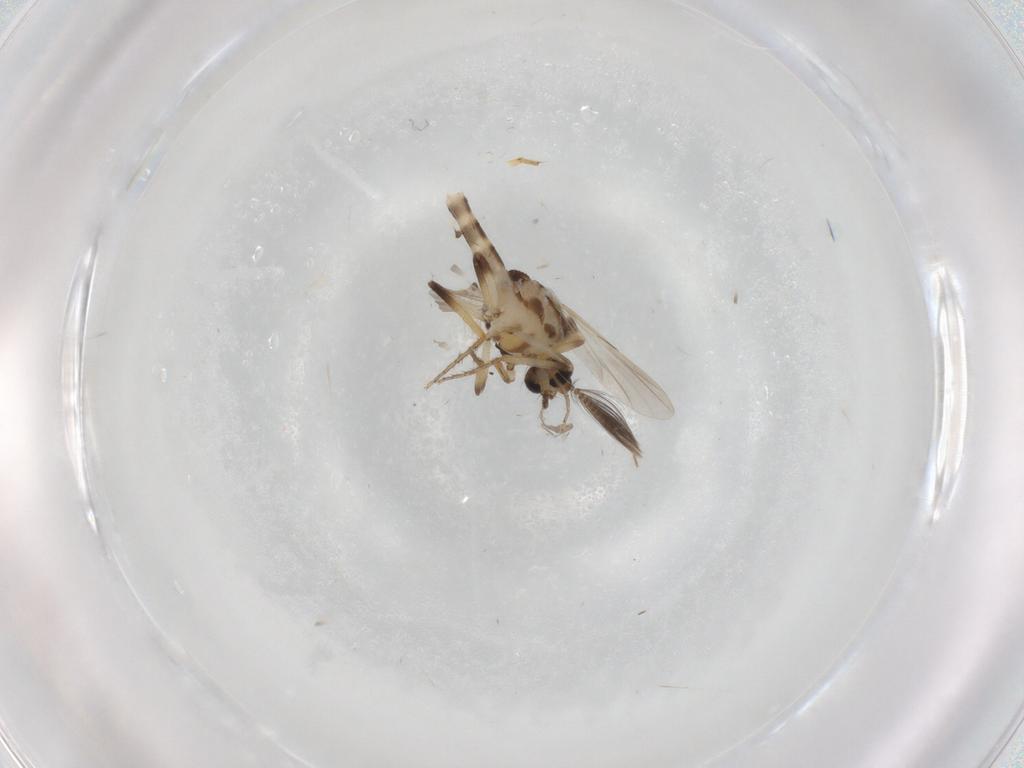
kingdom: Animalia
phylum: Arthropoda
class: Insecta
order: Diptera
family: Ceratopogonidae
